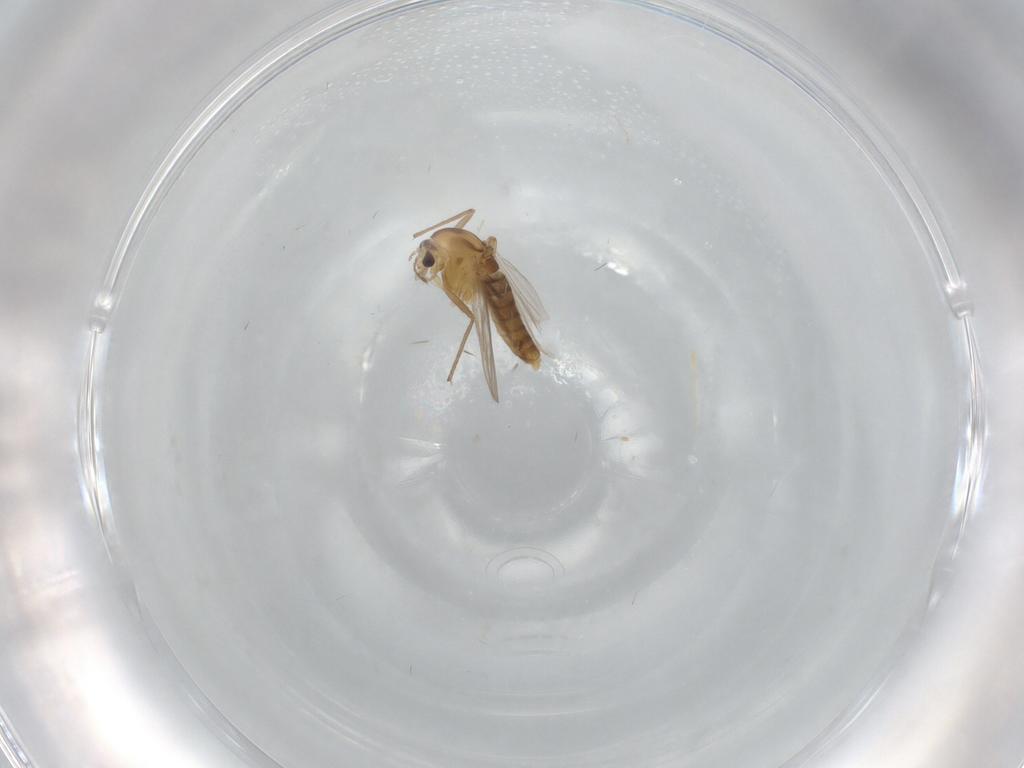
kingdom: Animalia
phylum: Arthropoda
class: Insecta
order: Diptera
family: Chironomidae
